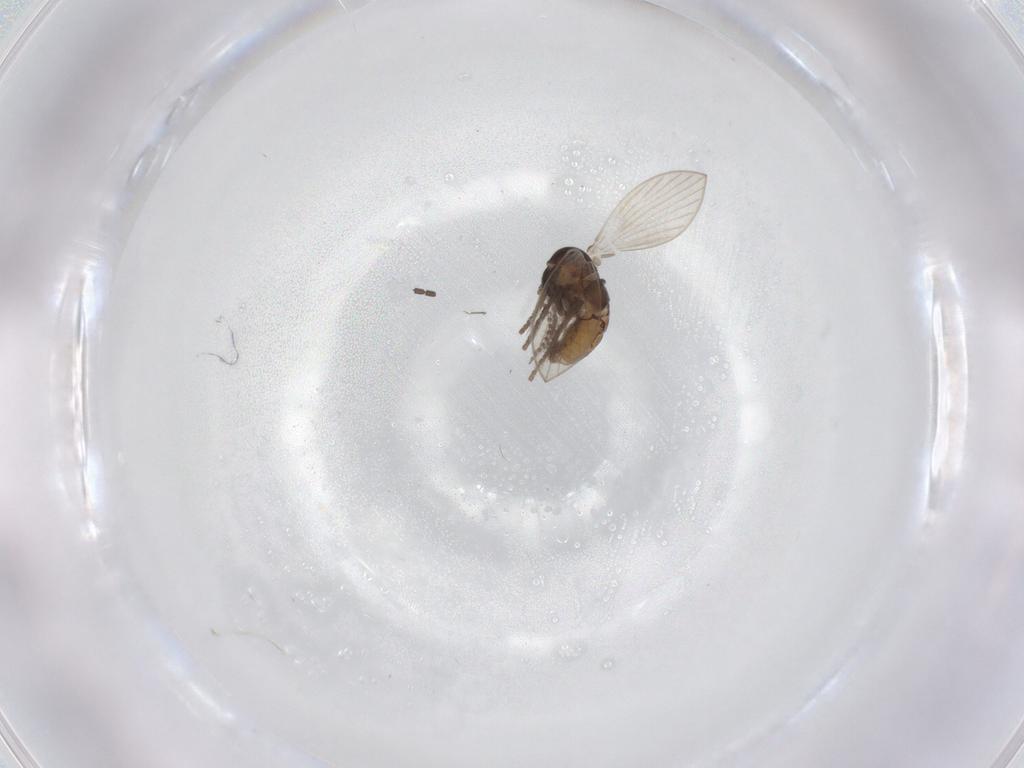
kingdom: Animalia
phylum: Arthropoda
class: Insecta
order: Diptera
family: Psychodidae
